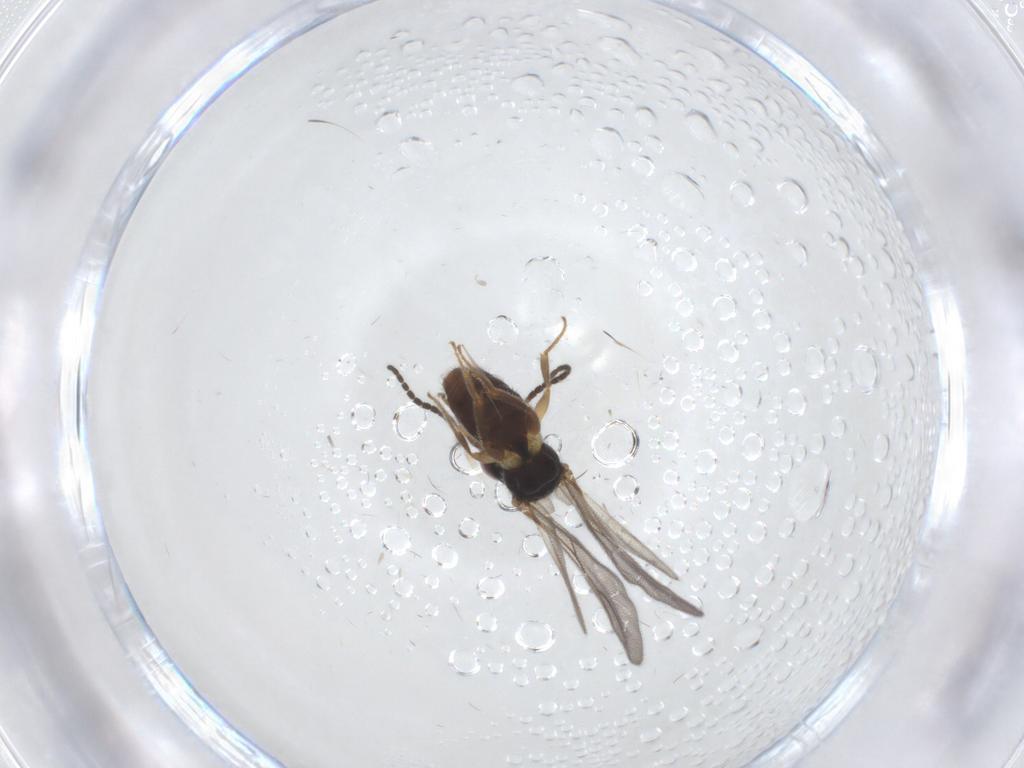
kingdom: Animalia
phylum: Arthropoda
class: Insecta
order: Hymenoptera
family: Bethylidae
